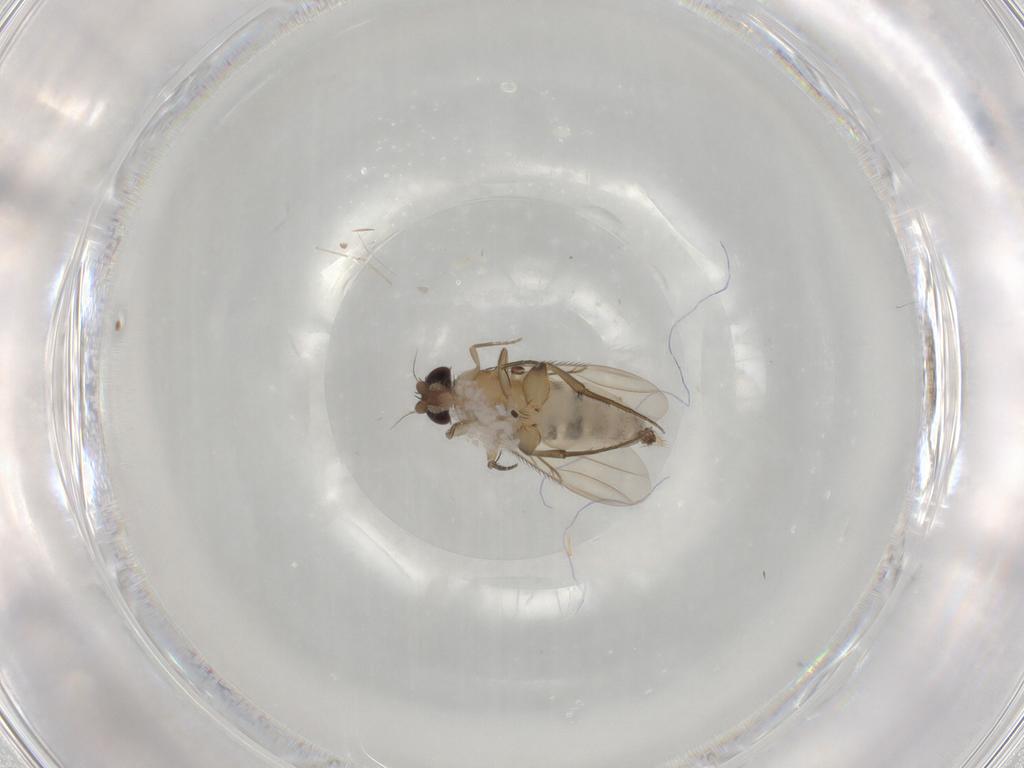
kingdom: Animalia
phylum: Arthropoda
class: Insecta
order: Diptera
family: Phoridae
